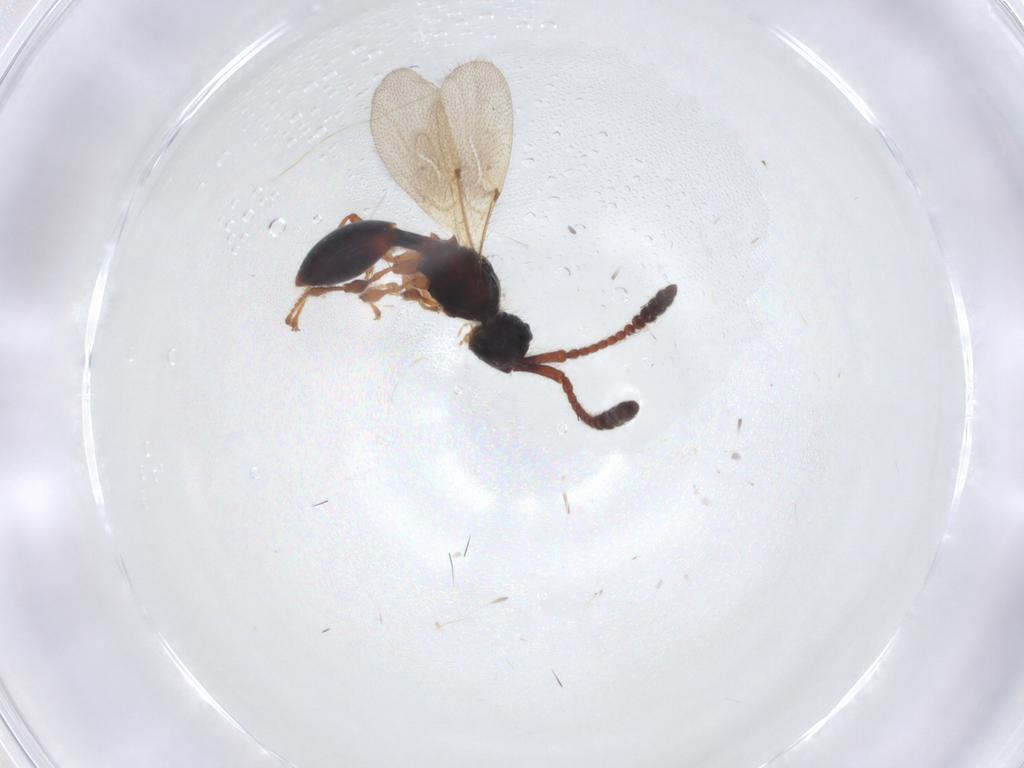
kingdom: Animalia
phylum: Arthropoda
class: Insecta
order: Hymenoptera
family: Diapriidae
